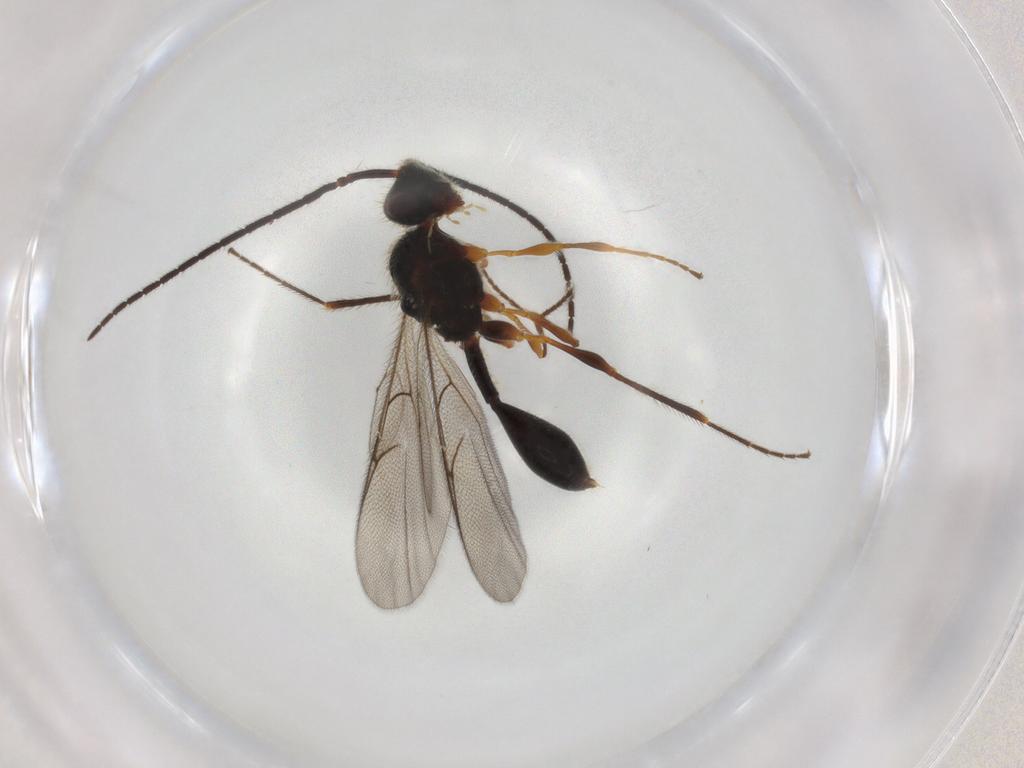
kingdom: Animalia
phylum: Arthropoda
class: Insecta
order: Hymenoptera
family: Diapriidae
